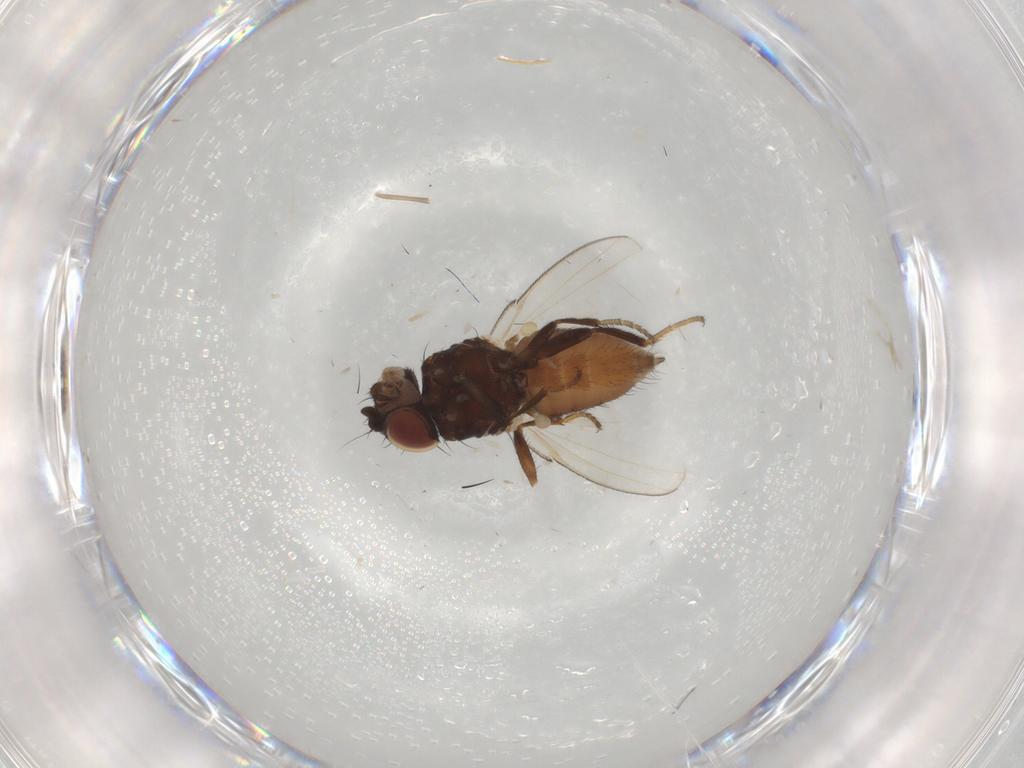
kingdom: Animalia
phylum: Arthropoda
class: Insecta
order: Diptera
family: Milichiidae
